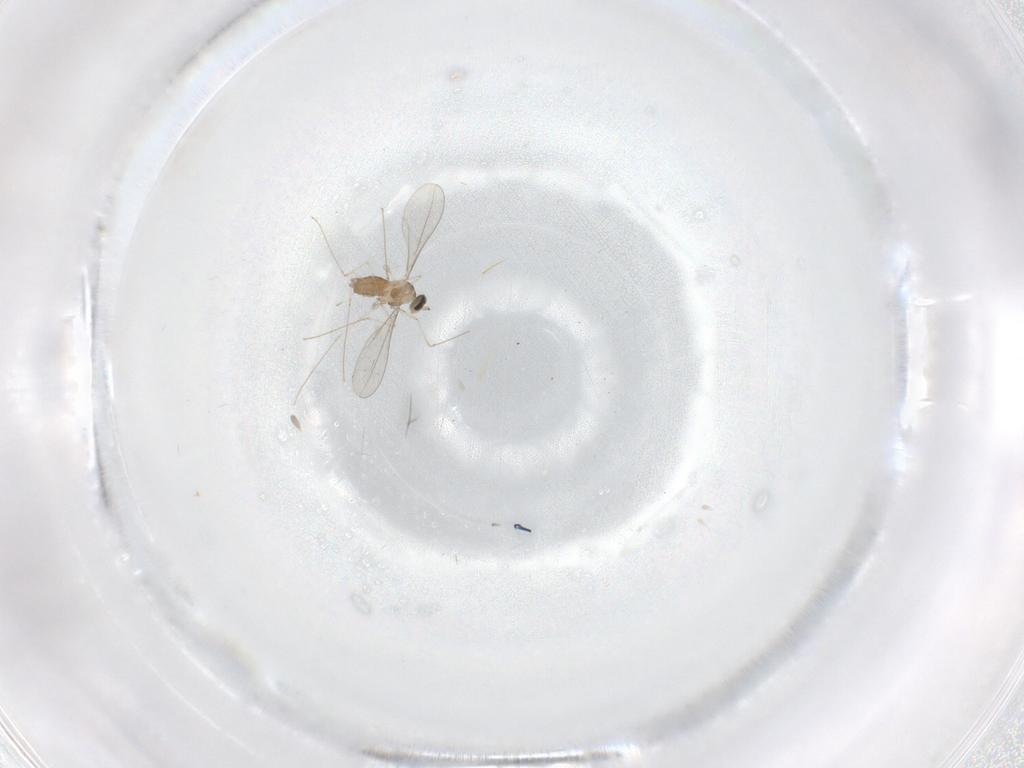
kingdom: Animalia
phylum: Arthropoda
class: Insecta
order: Diptera
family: Cecidomyiidae
